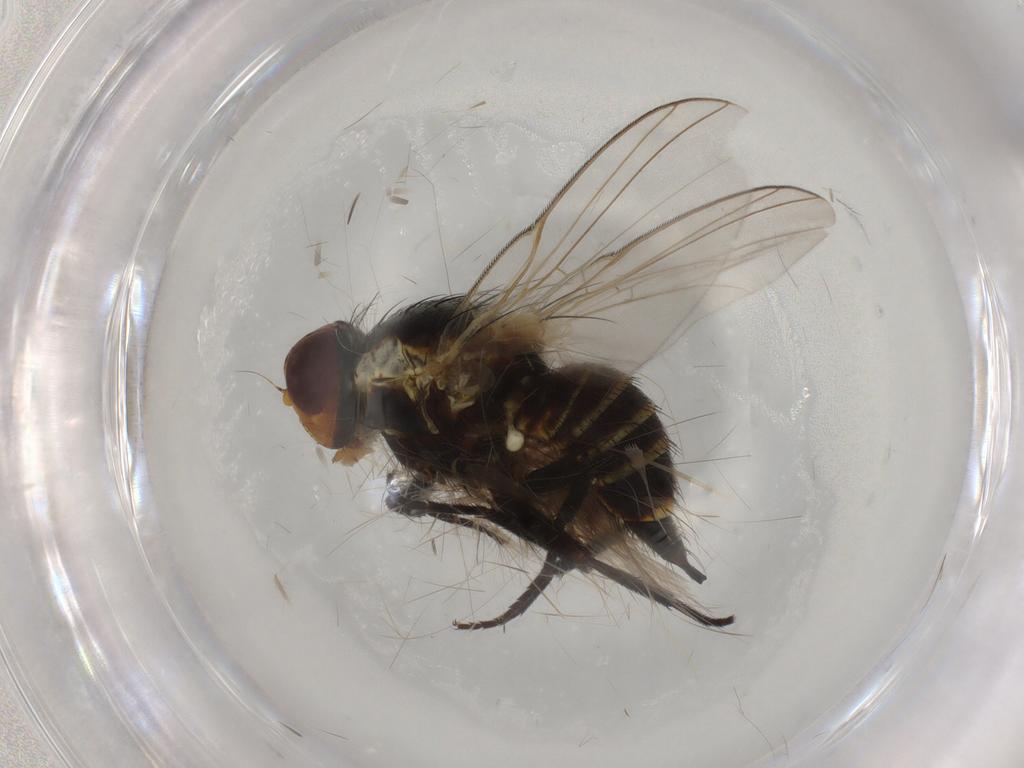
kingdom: Animalia
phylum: Arthropoda
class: Insecta
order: Diptera
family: Agromyzidae
